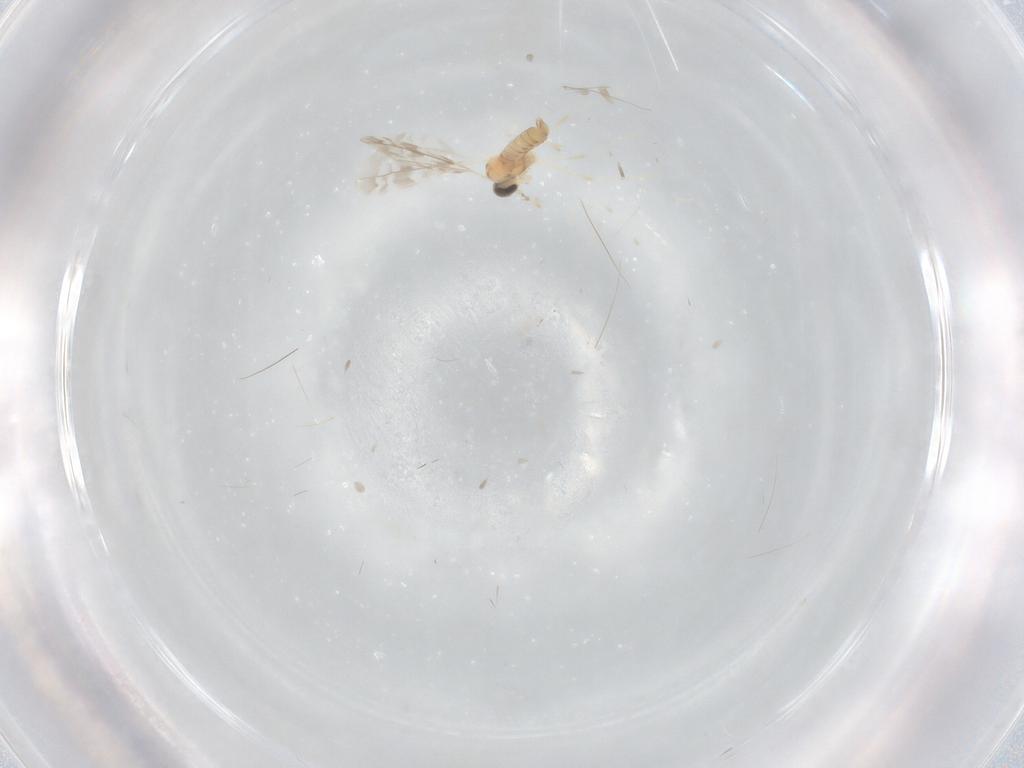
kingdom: Animalia
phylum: Arthropoda
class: Insecta
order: Diptera
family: Cecidomyiidae
